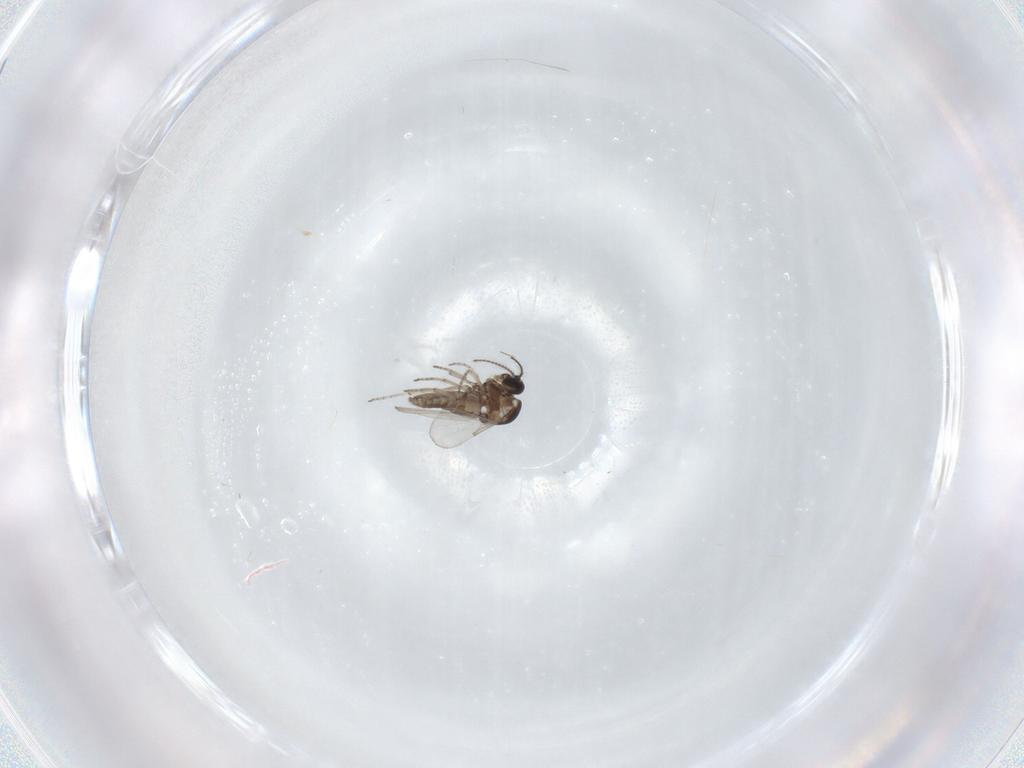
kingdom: Animalia
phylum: Arthropoda
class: Insecta
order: Diptera
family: Ceratopogonidae
